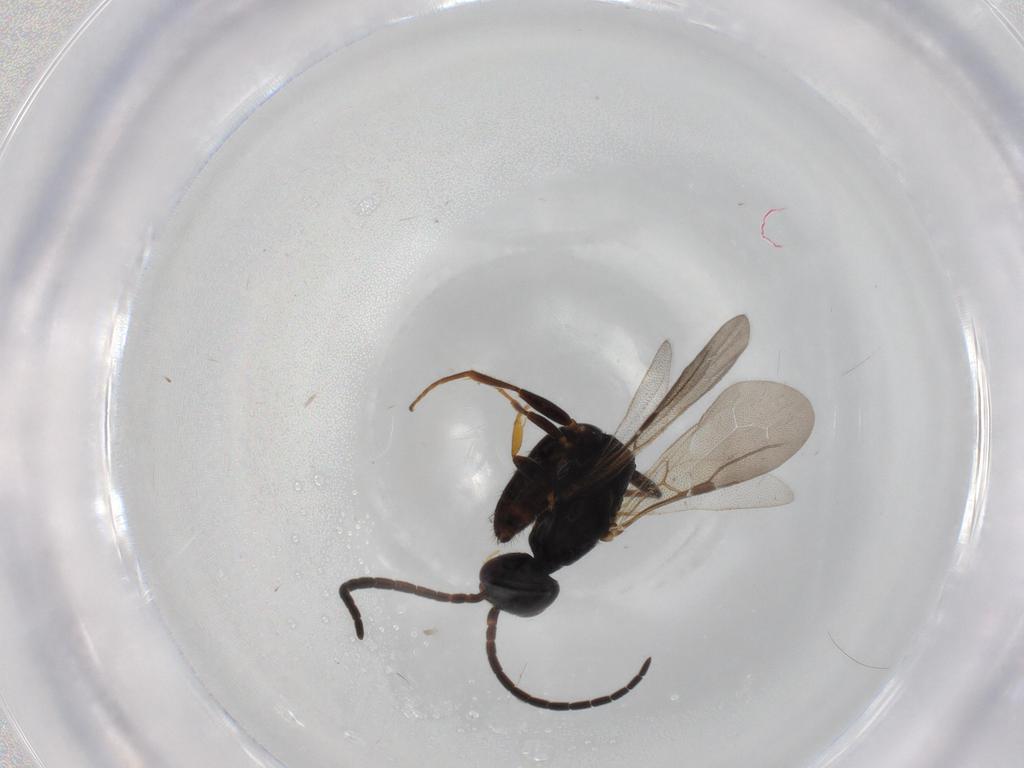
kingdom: Animalia
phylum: Arthropoda
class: Insecta
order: Hymenoptera
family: Bethylidae
